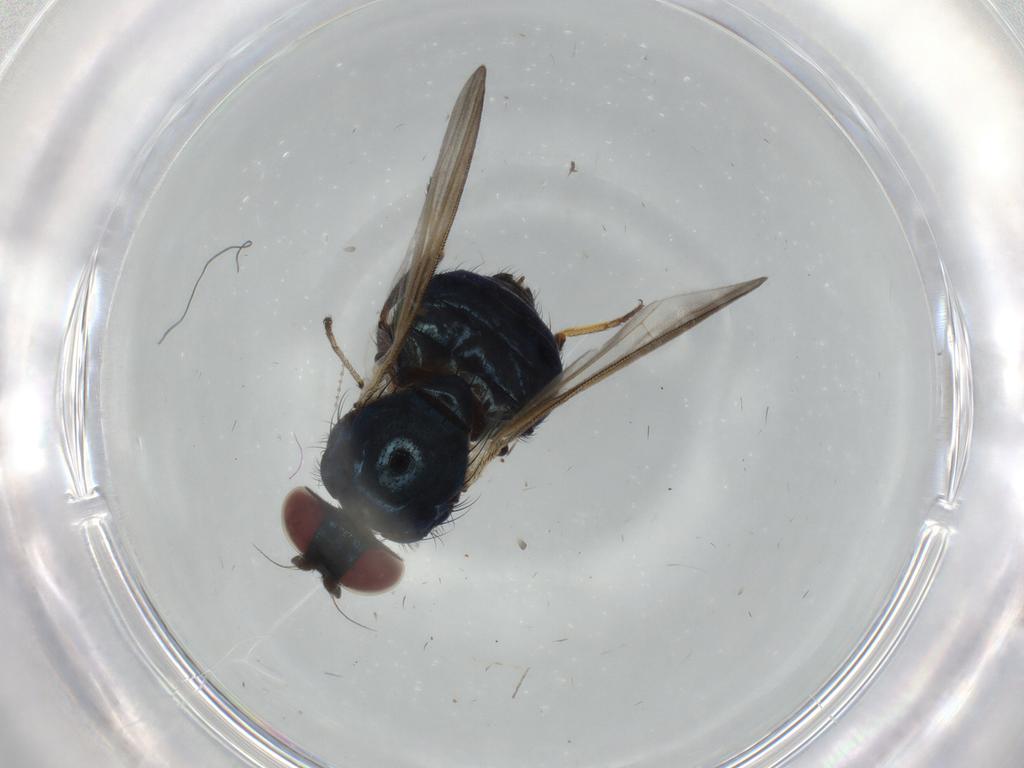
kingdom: Animalia
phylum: Arthropoda
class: Insecta
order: Diptera
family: Lonchaeidae
